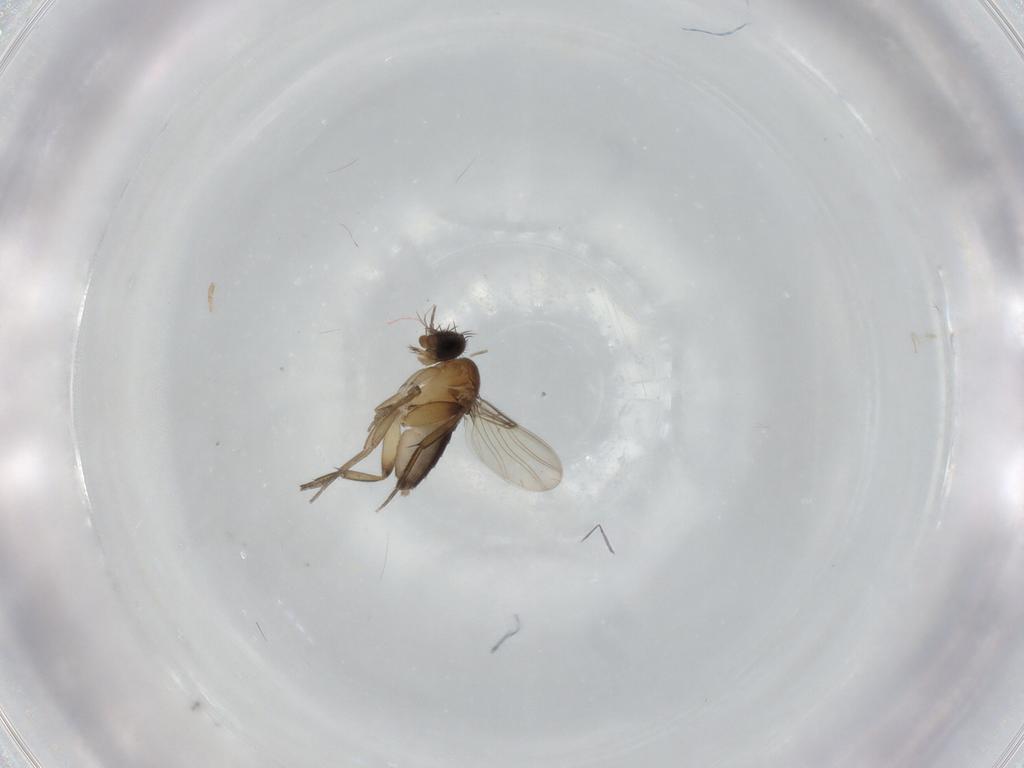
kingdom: Animalia
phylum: Arthropoda
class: Insecta
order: Diptera
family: Phoridae
